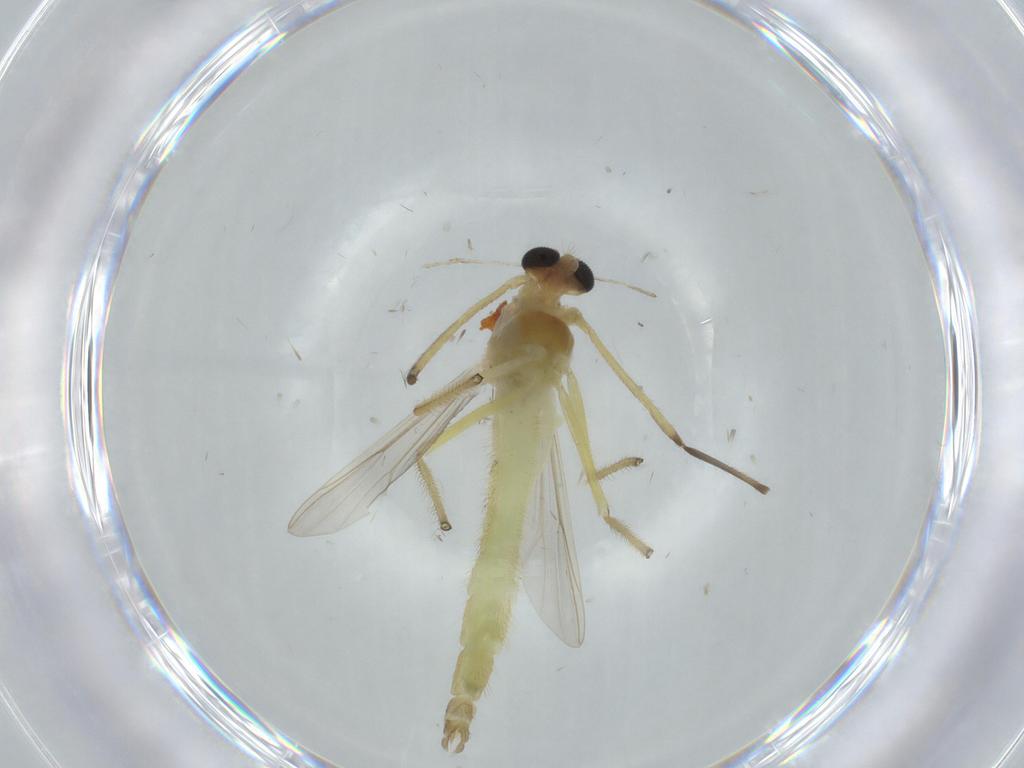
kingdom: Animalia
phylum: Arthropoda
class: Insecta
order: Diptera
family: Chironomidae
